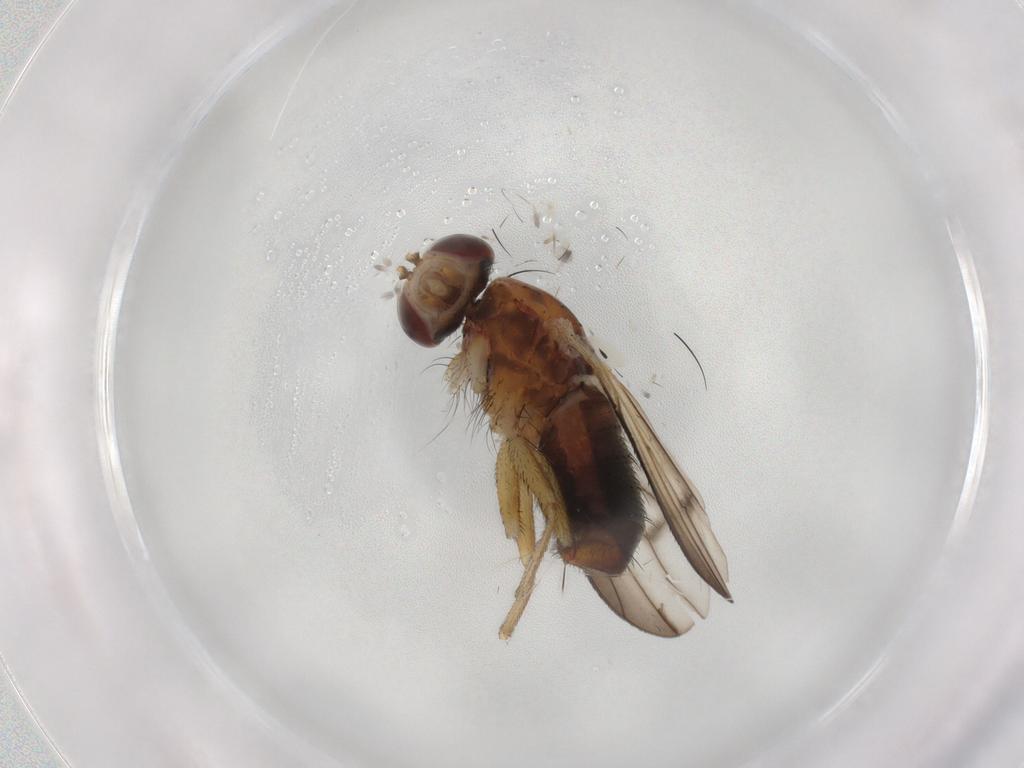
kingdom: Animalia
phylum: Arthropoda
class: Insecta
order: Diptera
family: Heleomyzidae
